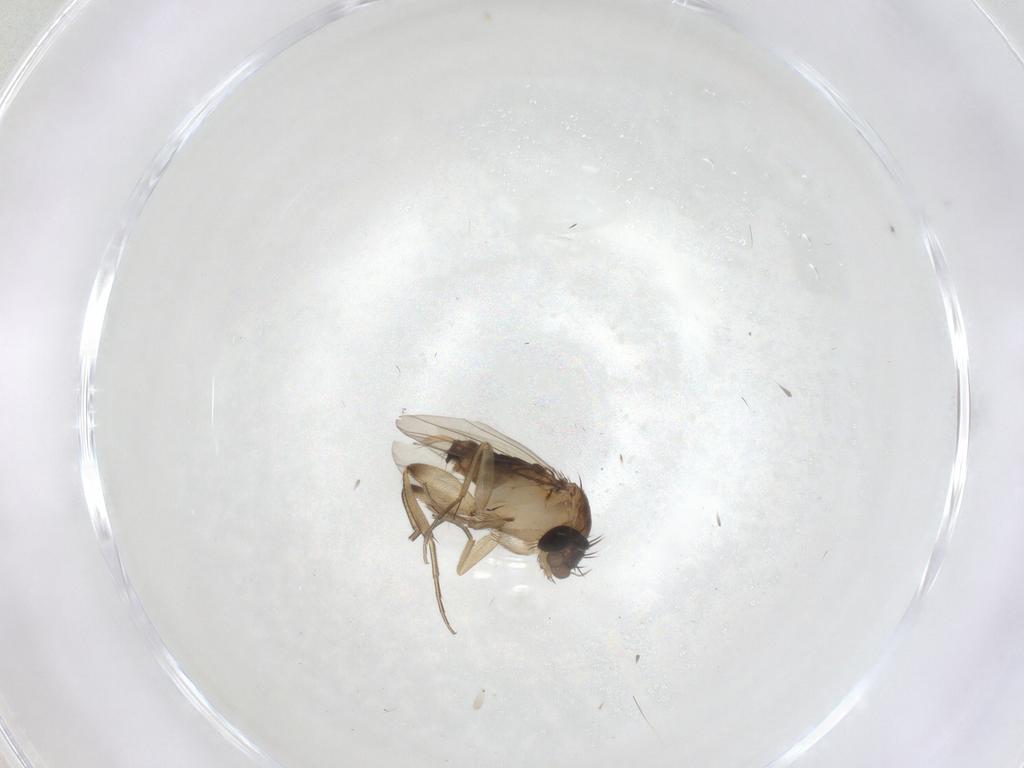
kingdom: Animalia
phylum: Arthropoda
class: Insecta
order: Diptera
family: Phoridae
